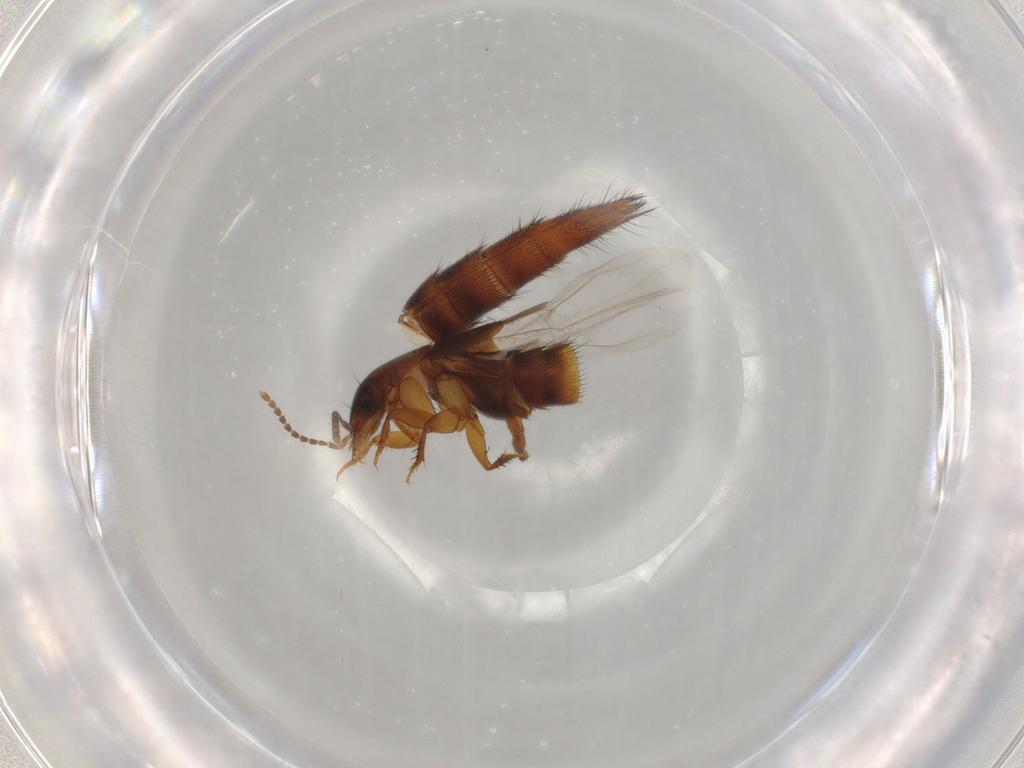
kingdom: Animalia
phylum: Arthropoda
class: Insecta
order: Coleoptera
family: Staphylinidae
